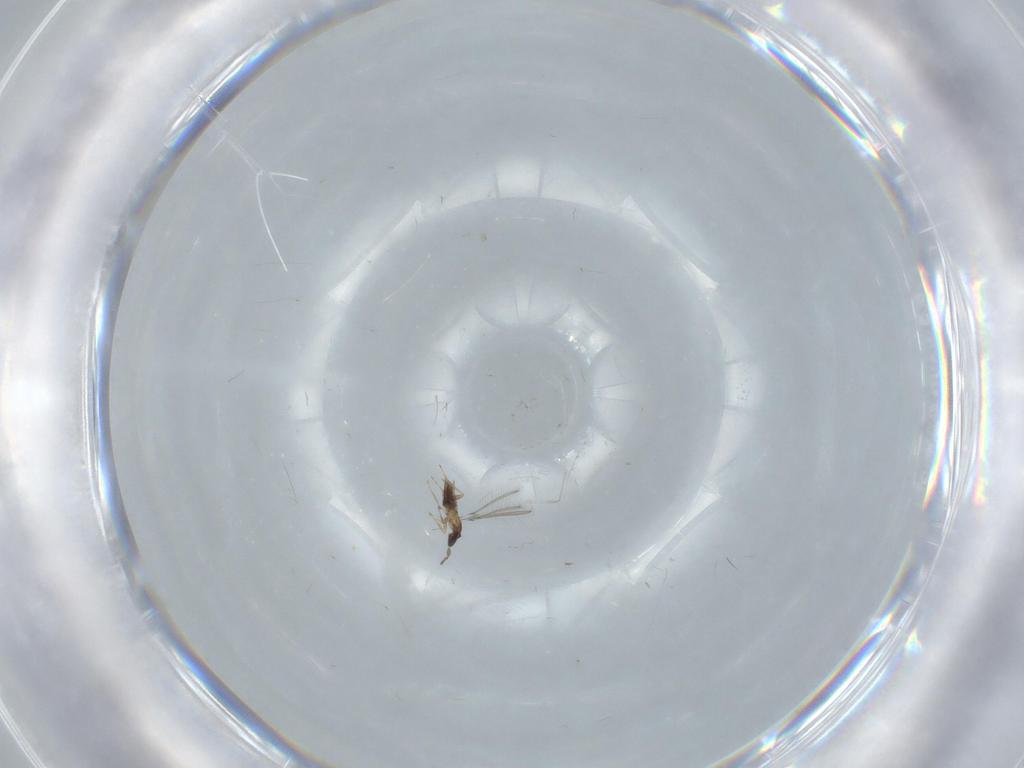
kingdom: Animalia
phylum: Arthropoda
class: Insecta
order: Hymenoptera
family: Mymaridae
